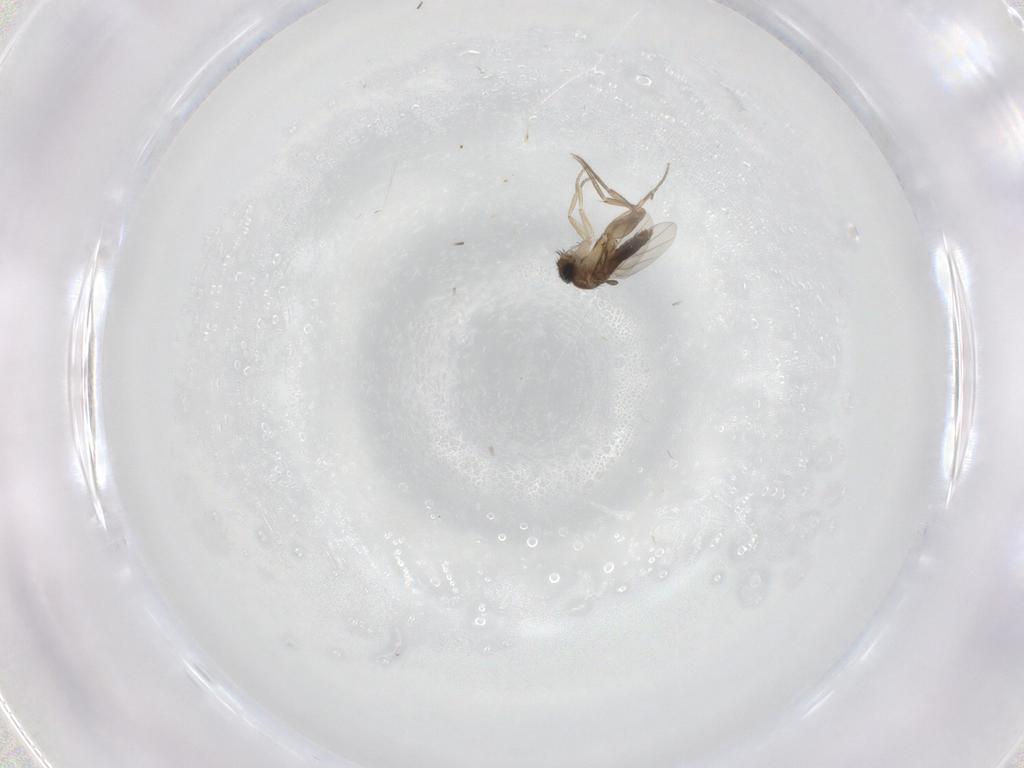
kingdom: Animalia
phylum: Arthropoda
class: Insecta
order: Diptera
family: Phoridae
